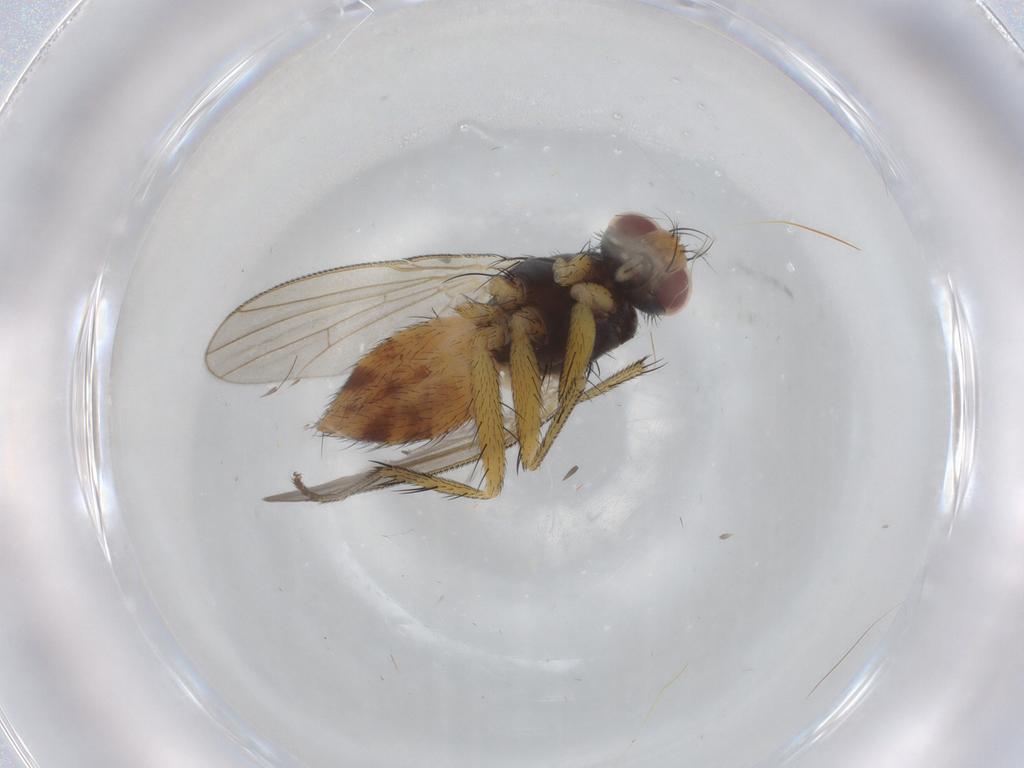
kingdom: Animalia
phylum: Arthropoda
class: Insecta
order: Diptera
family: Muscidae
